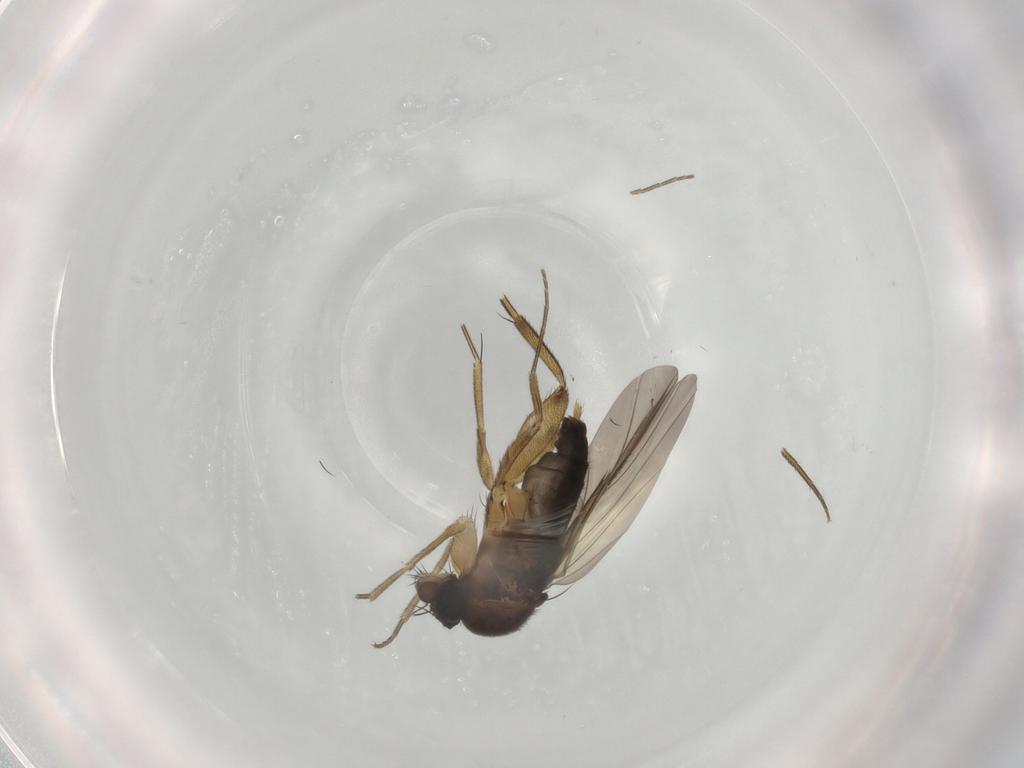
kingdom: Animalia
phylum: Arthropoda
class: Insecta
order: Diptera
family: Phoridae
